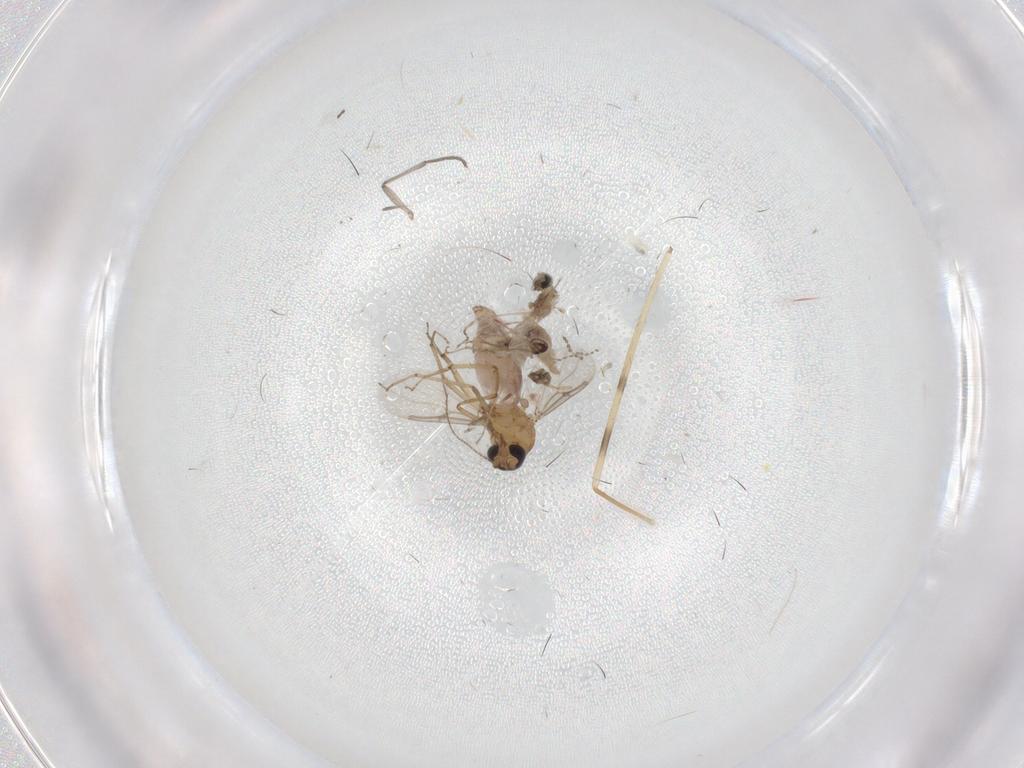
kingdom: Animalia
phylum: Arthropoda
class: Insecta
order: Diptera
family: Cecidomyiidae
